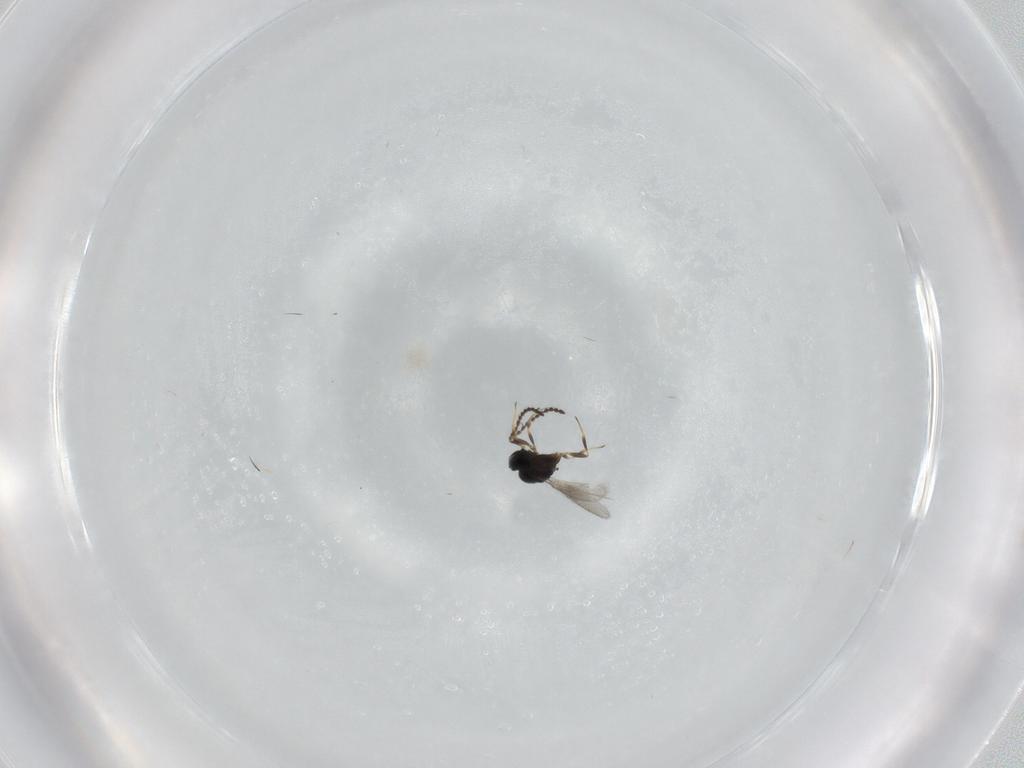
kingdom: Animalia
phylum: Arthropoda
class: Insecta
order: Hymenoptera
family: Scelionidae
